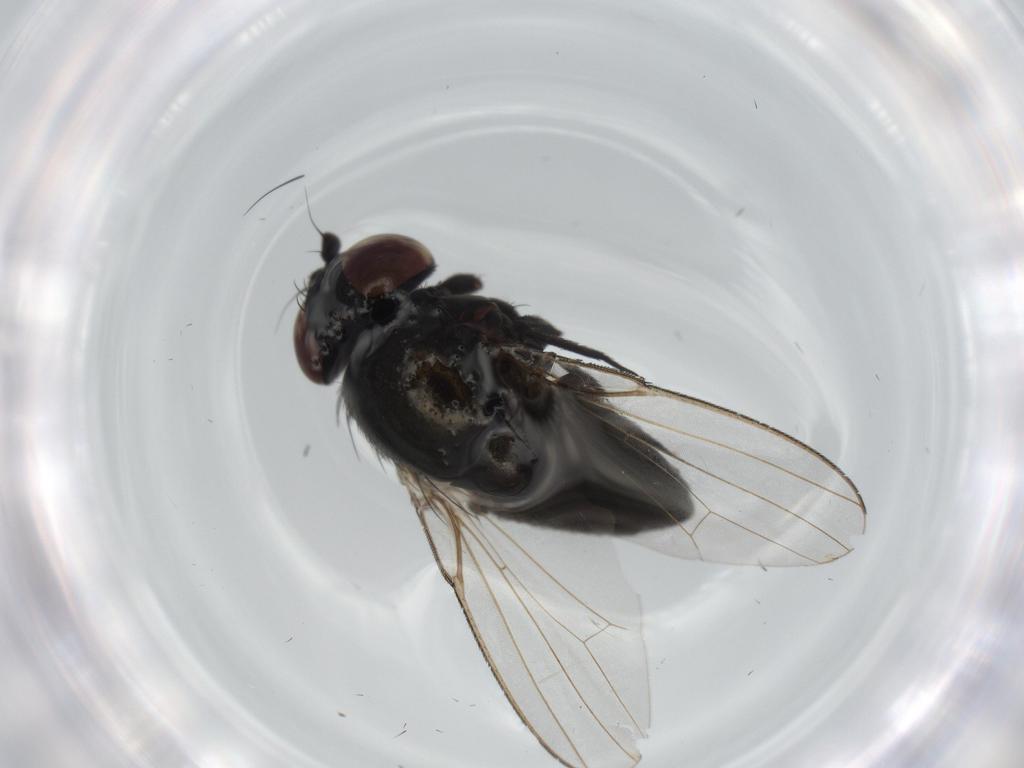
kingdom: Animalia
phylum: Arthropoda
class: Insecta
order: Diptera
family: Milichiidae
